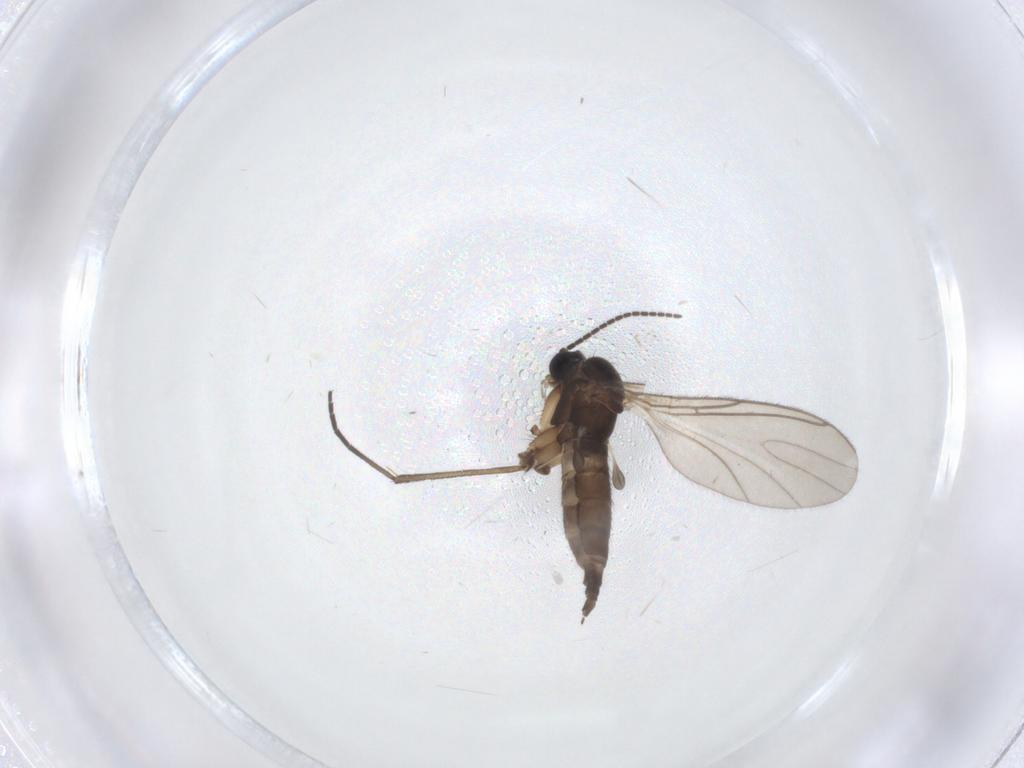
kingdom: Animalia
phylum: Arthropoda
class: Insecta
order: Diptera
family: Sciaridae
